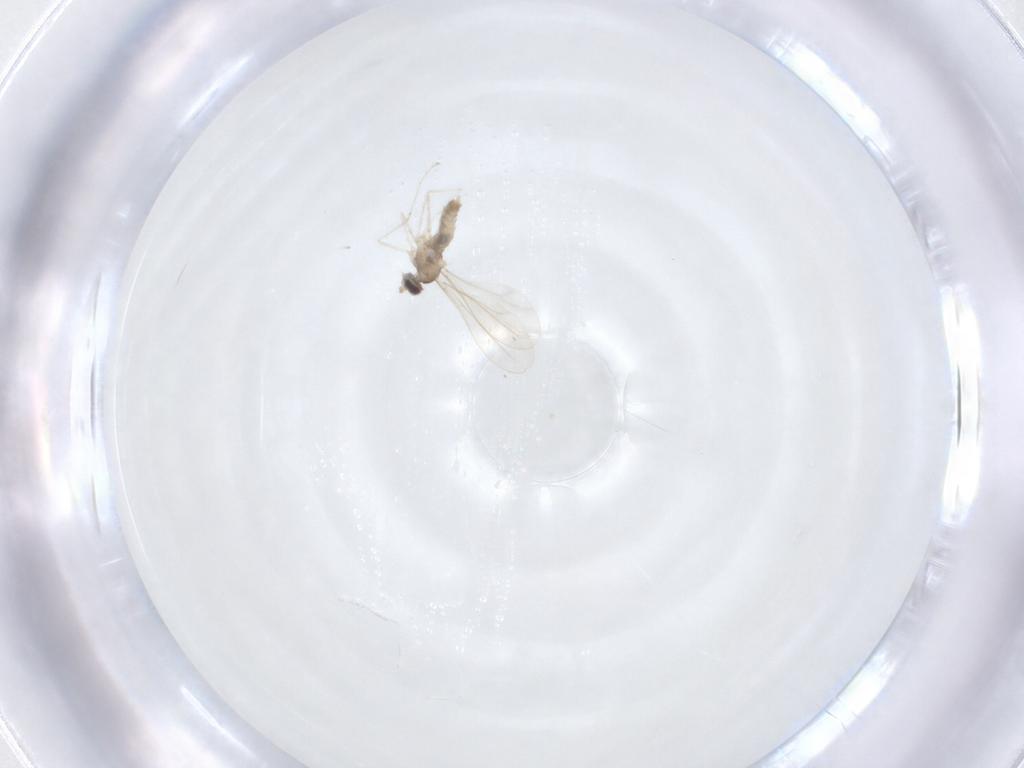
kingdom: Animalia
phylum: Arthropoda
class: Insecta
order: Diptera
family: Cecidomyiidae
